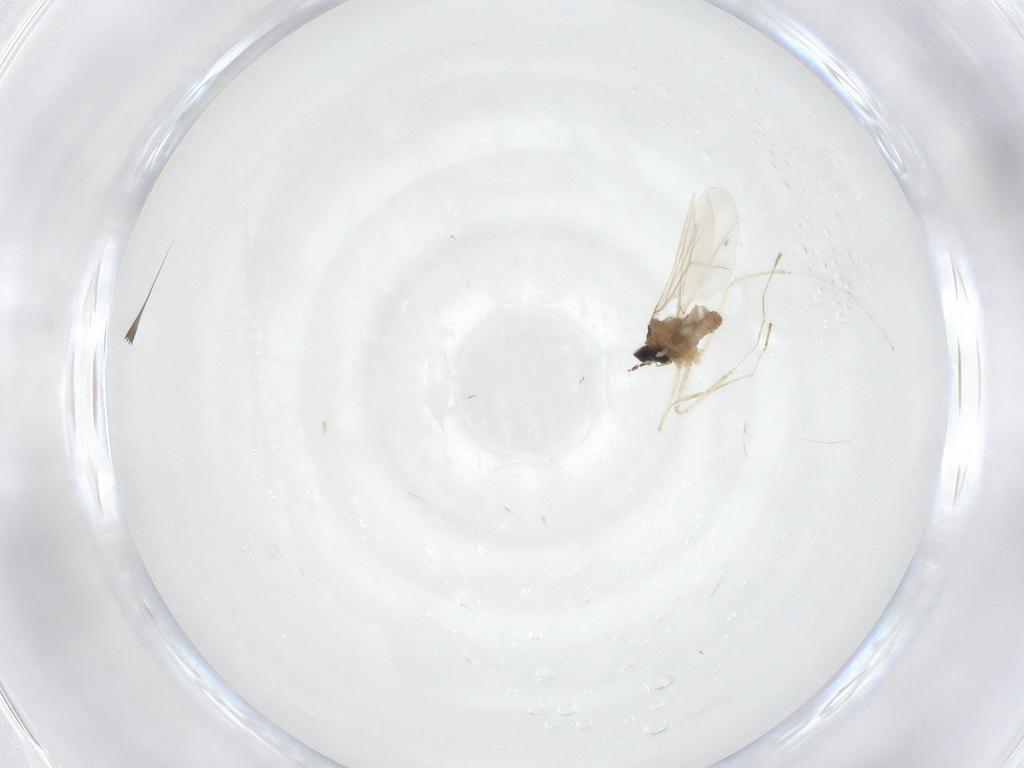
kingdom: Animalia
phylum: Arthropoda
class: Insecta
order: Diptera
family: Cecidomyiidae
